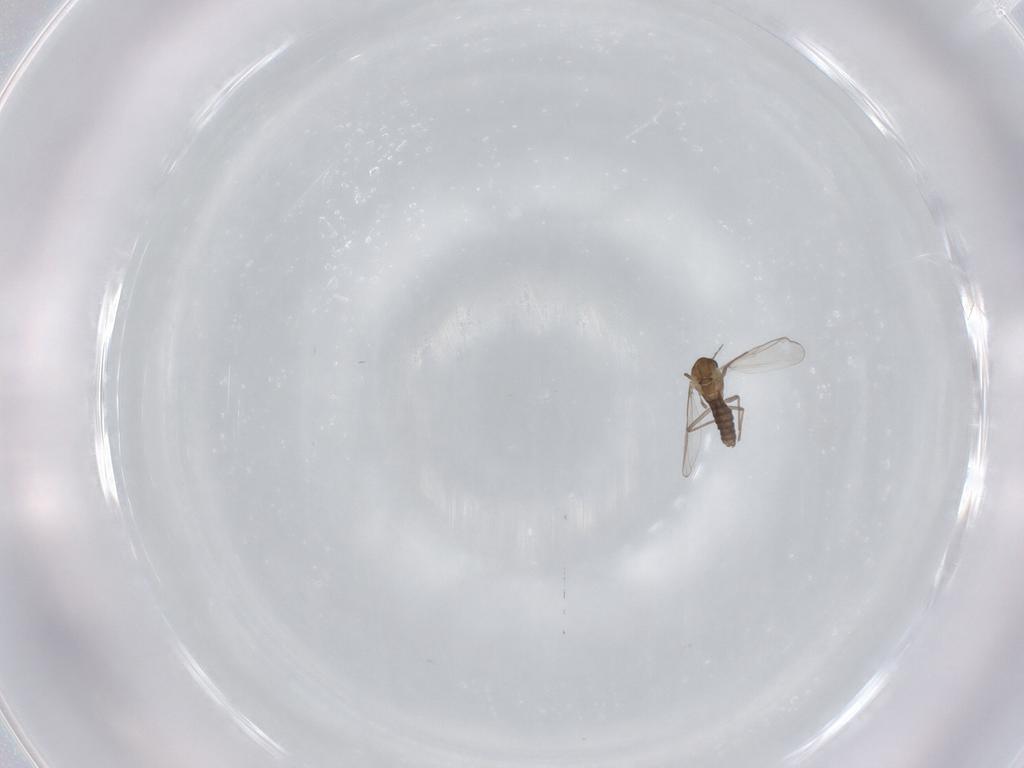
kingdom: Animalia
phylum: Arthropoda
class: Insecta
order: Diptera
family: Chironomidae
